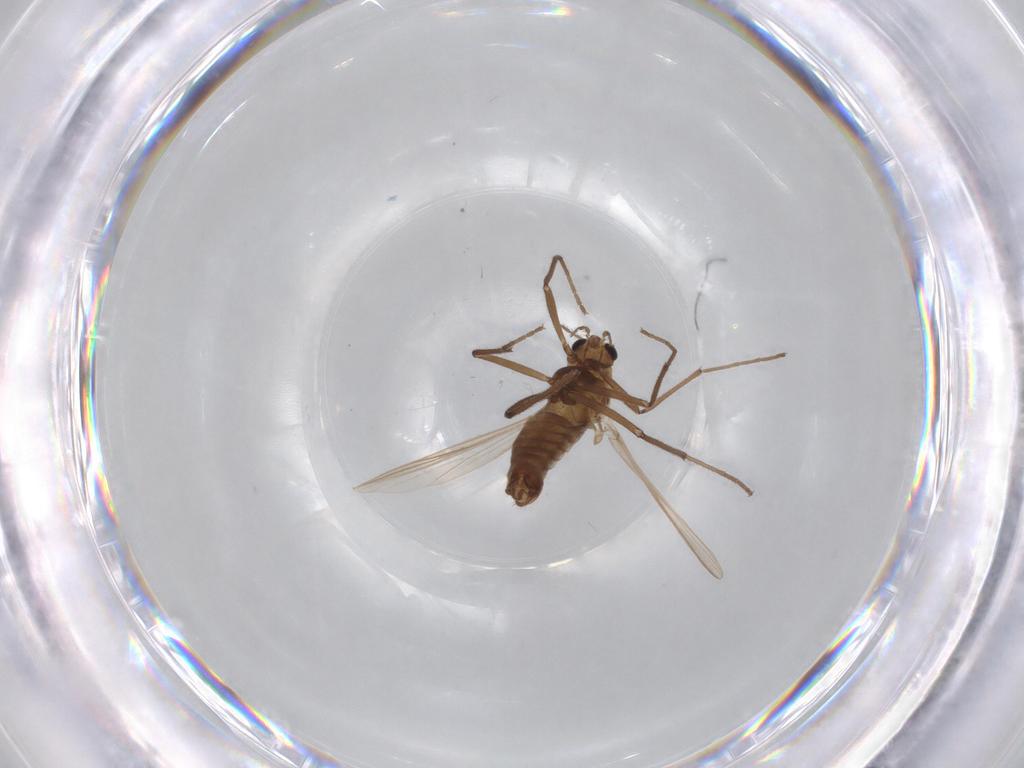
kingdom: Animalia
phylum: Arthropoda
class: Insecta
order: Diptera
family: Chironomidae
